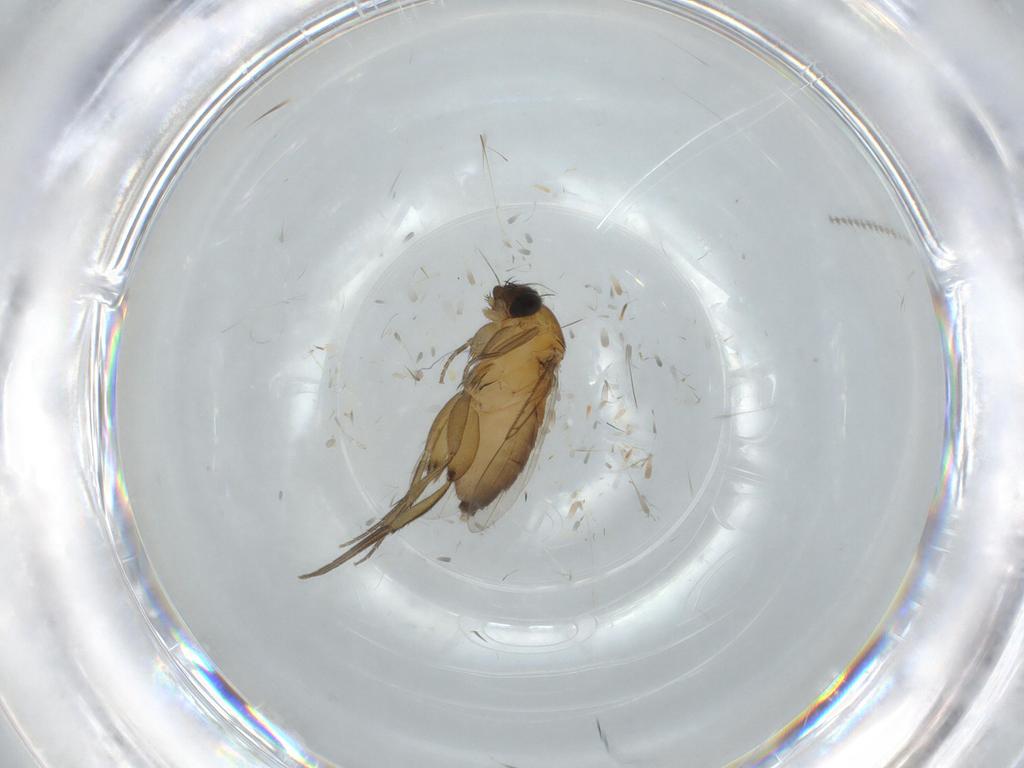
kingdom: Animalia
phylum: Arthropoda
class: Insecta
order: Diptera
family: Phoridae
